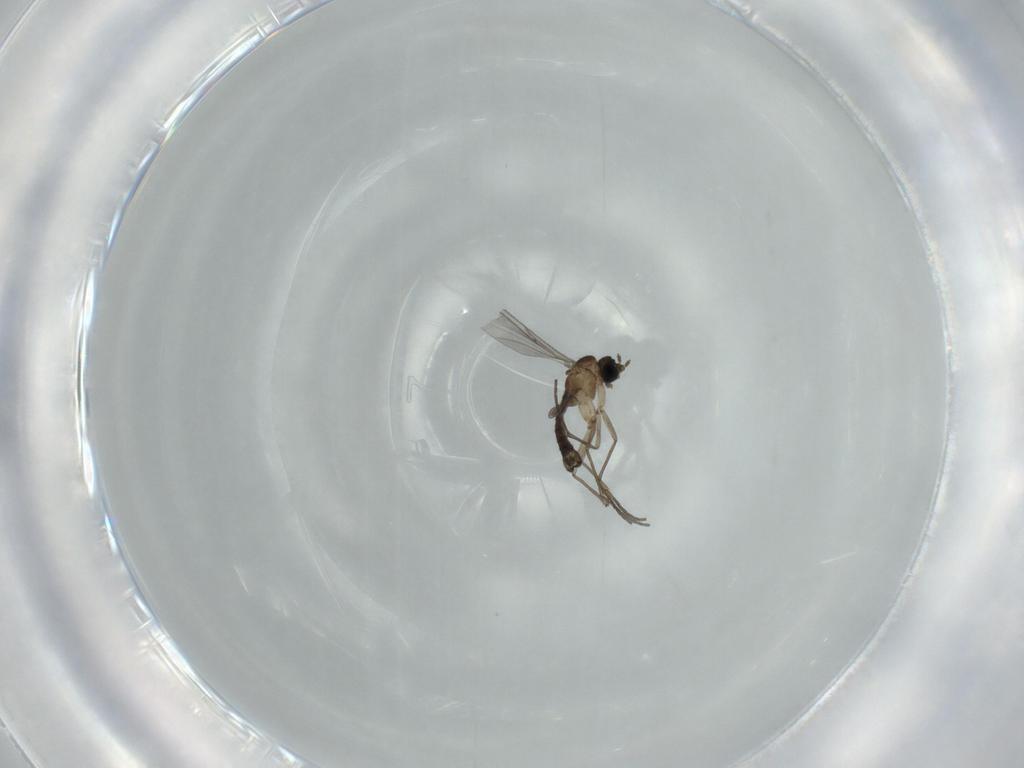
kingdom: Animalia
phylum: Arthropoda
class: Insecta
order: Diptera
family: Sciaridae
